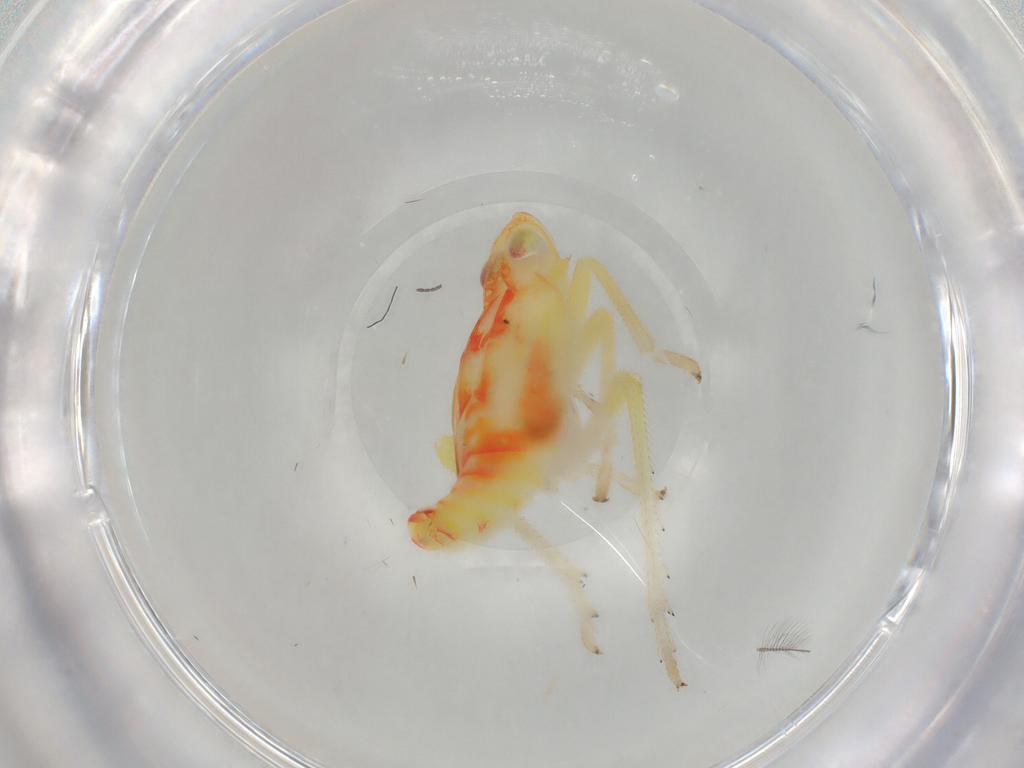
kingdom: Animalia
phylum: Arthropoda
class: Insecta
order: Hemiptera
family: Tropiduchidae
